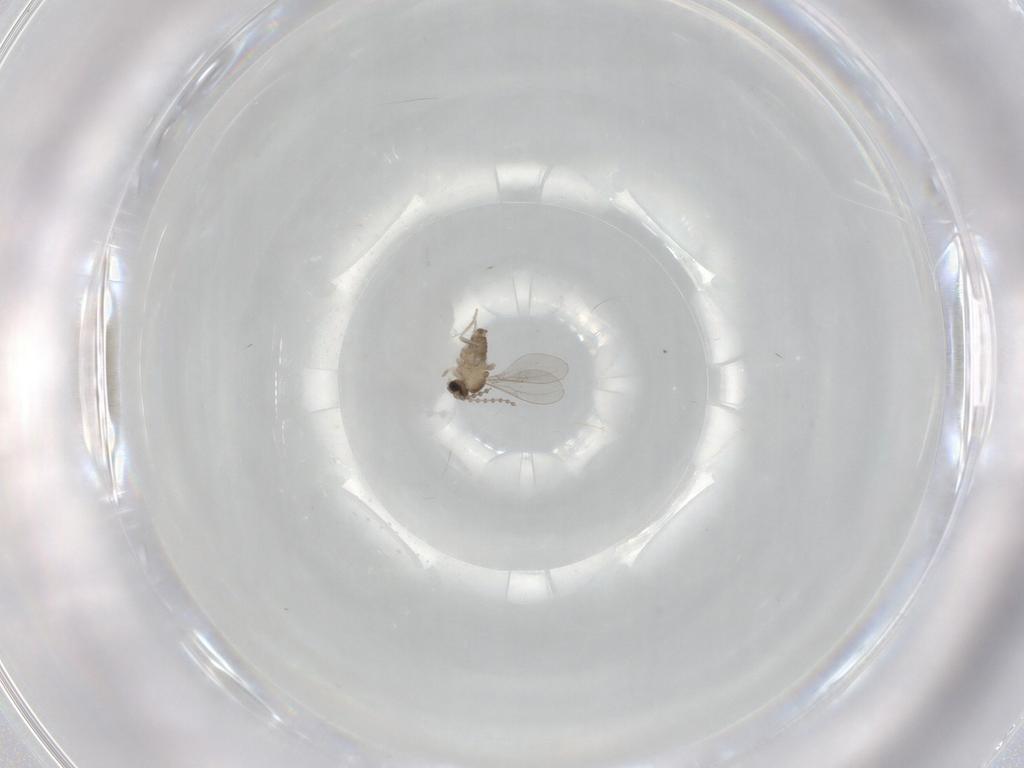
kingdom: Animalia
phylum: Arthropoda
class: Insecta
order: Diptera
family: Cecidomyiidae
